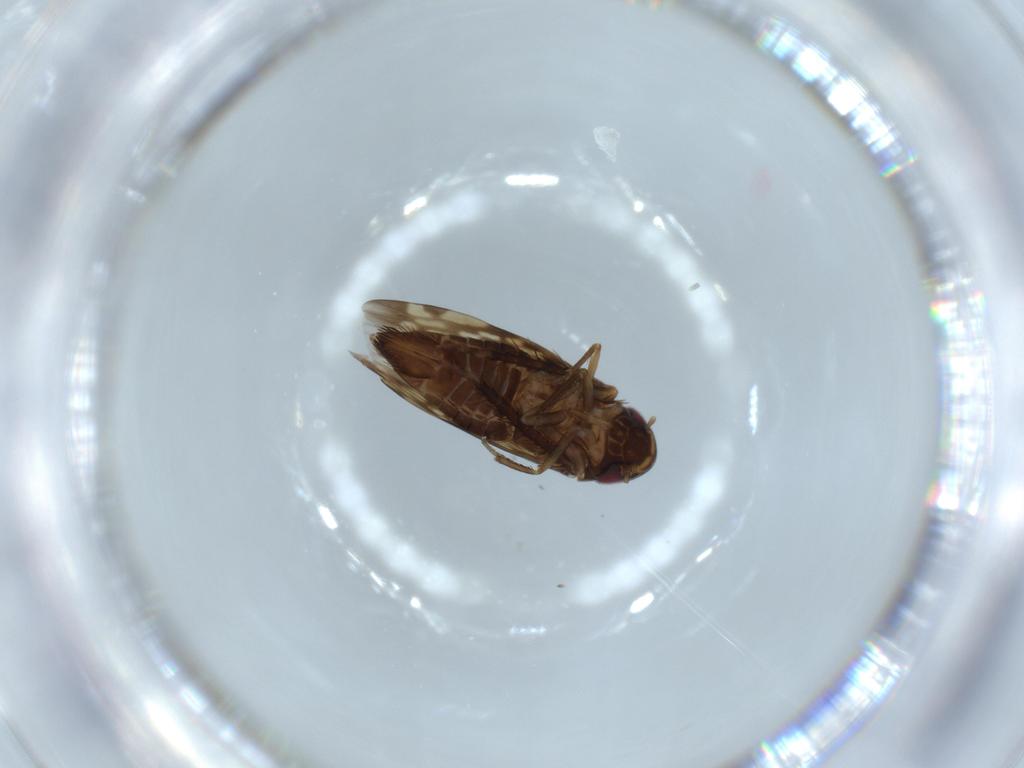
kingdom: Animalia
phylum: Arthropoda
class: Insecta
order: Hemiptera
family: Cicadellidae
